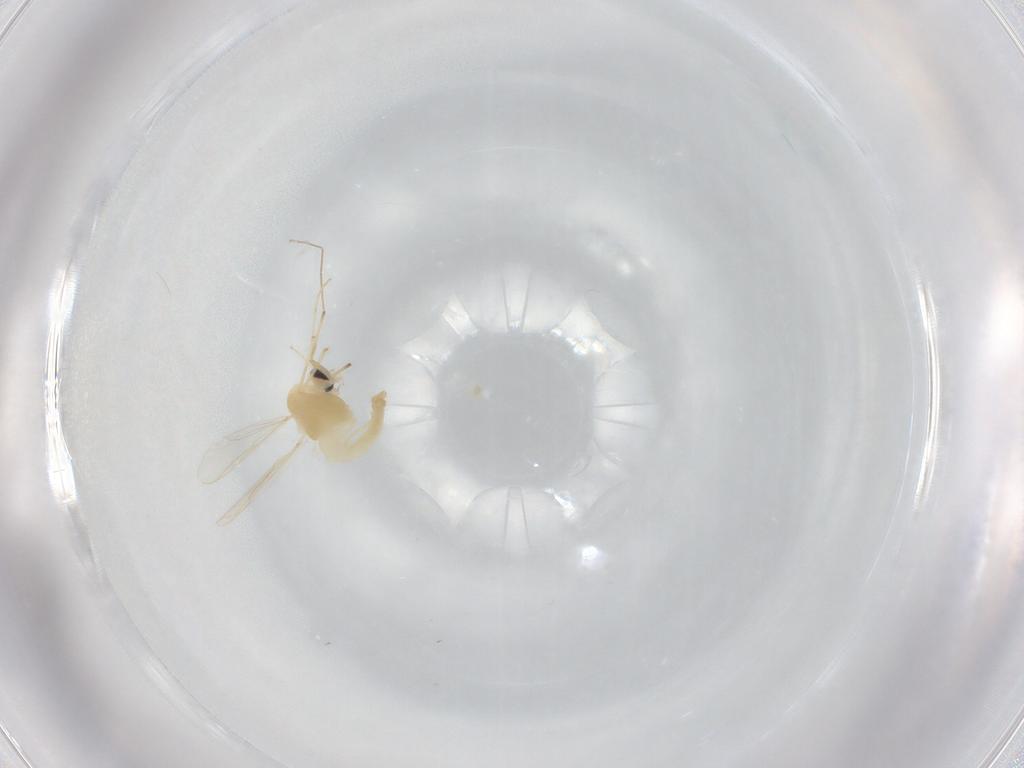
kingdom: Animalia
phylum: Arthropoda
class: Insecta
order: Diptera
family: Chironomidae
